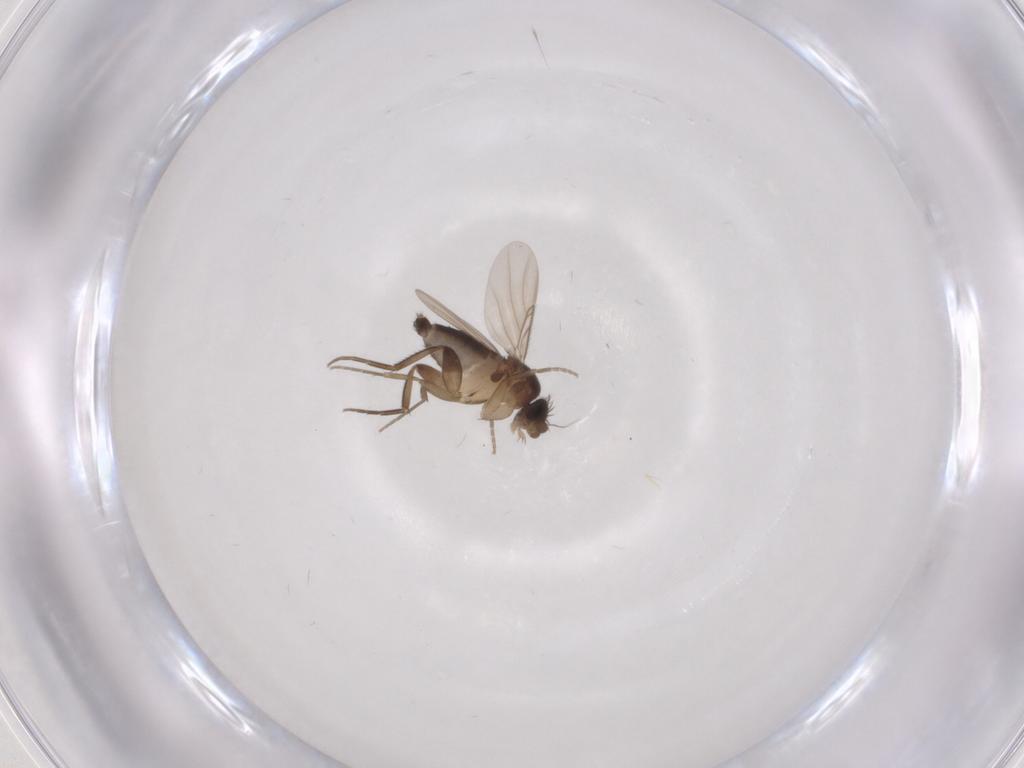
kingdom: Animalia
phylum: Arthropoda
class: Insecta
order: Diptera
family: Phoridae
